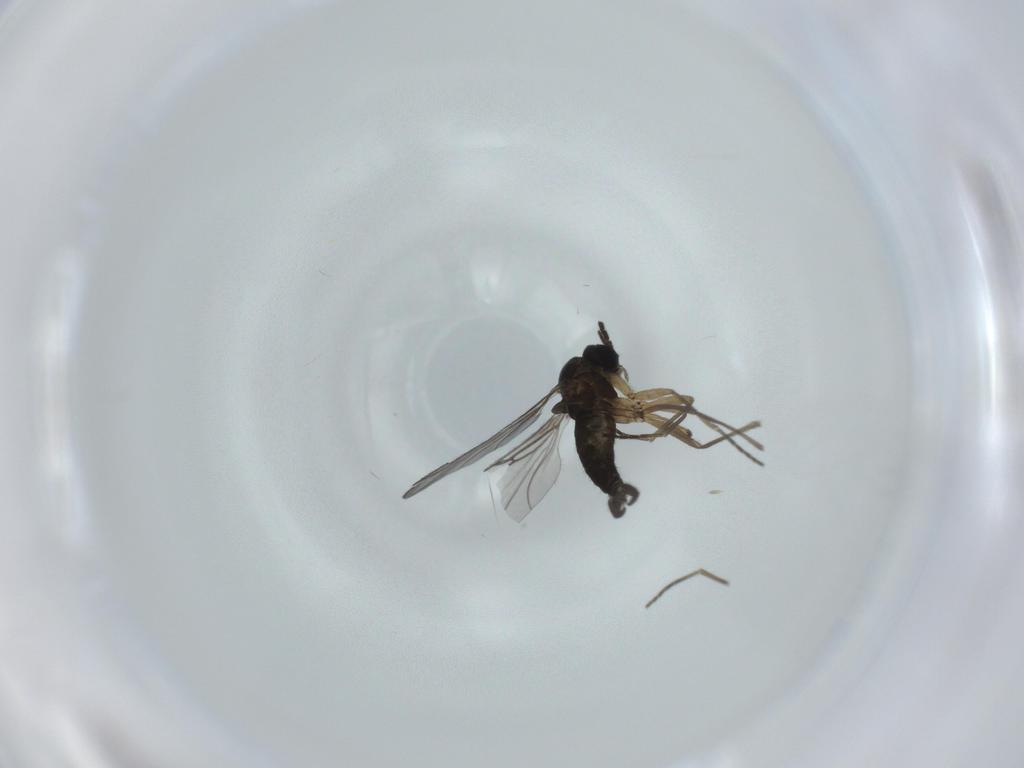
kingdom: Animalia
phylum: Arthropoda
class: Insecta
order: Diptera
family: Sciaridae
